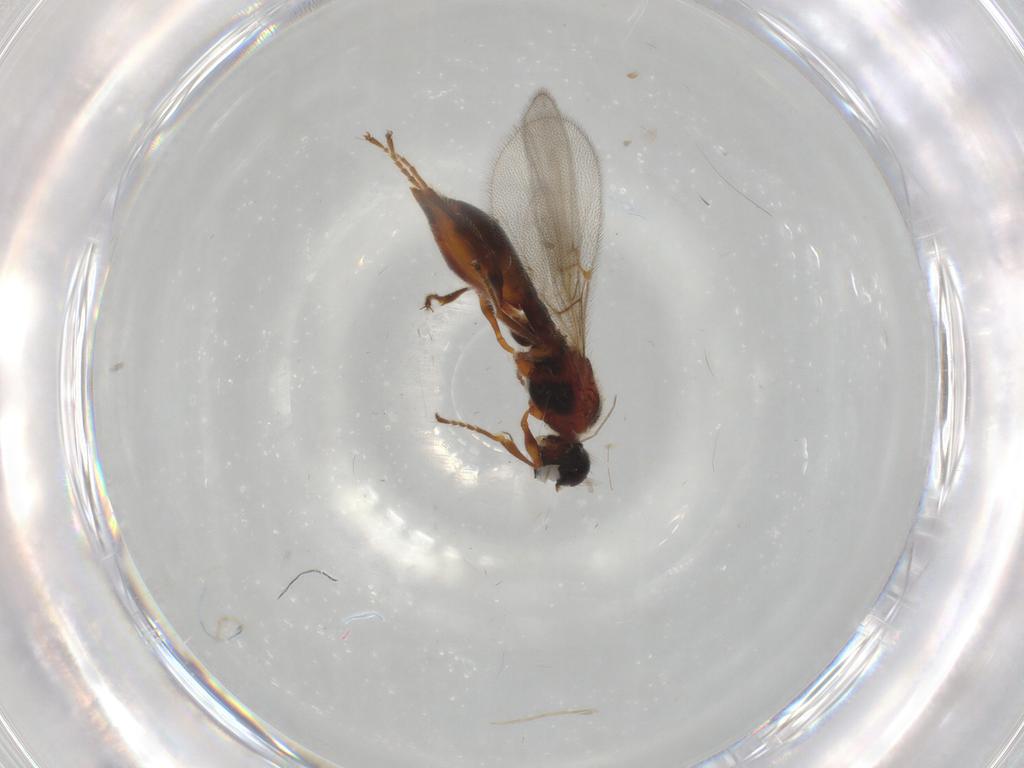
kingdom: Animalia
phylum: Arthropoda
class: Insecta
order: Hymenoptera
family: Diapriidae
